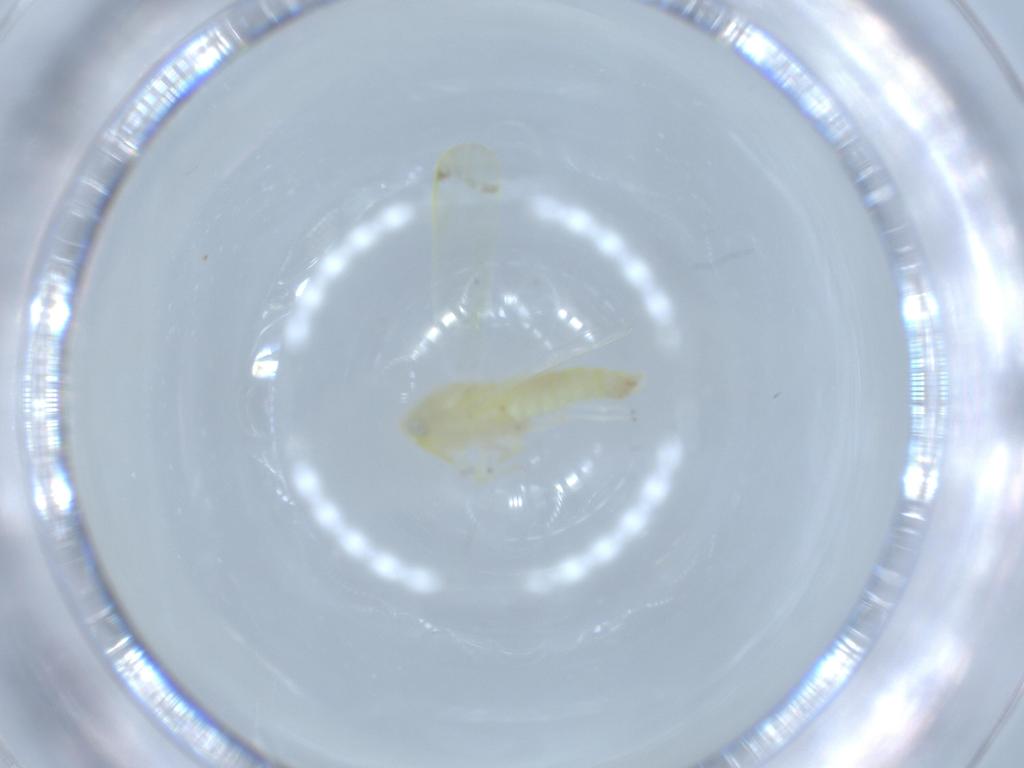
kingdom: Animalia
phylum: Arthropoda
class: Insecta
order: Hemiptera
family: Cicadellidae
